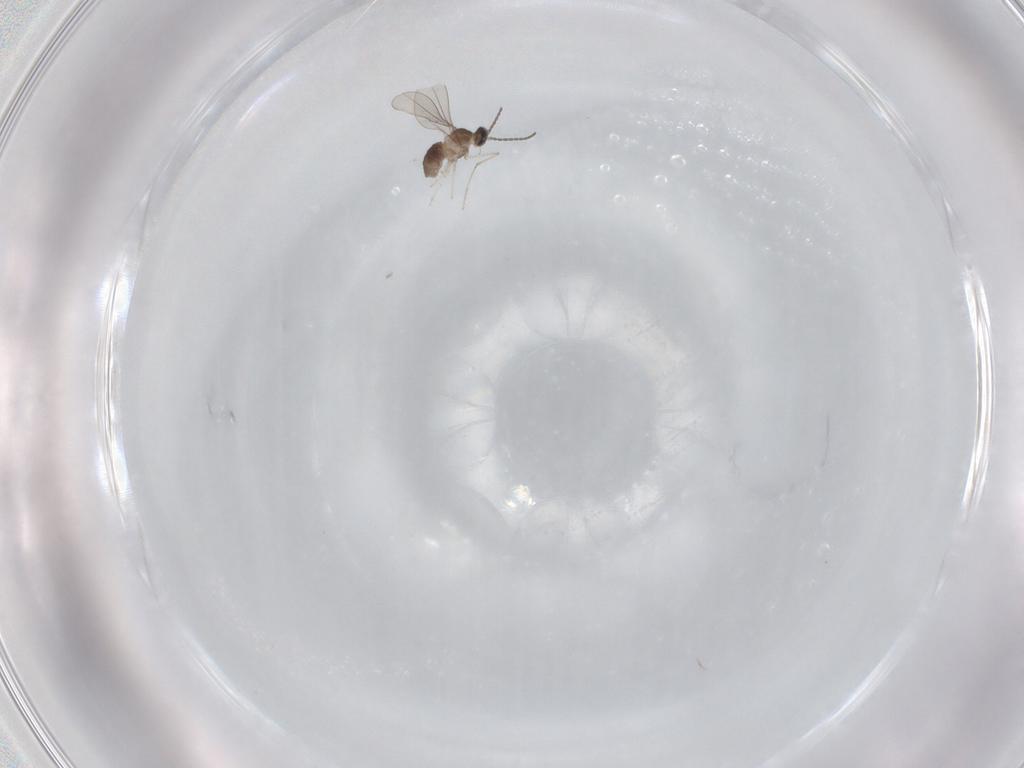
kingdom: Animalia
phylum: Arthropoda
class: Insecta
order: Diptera
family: Cecidomyiidae
